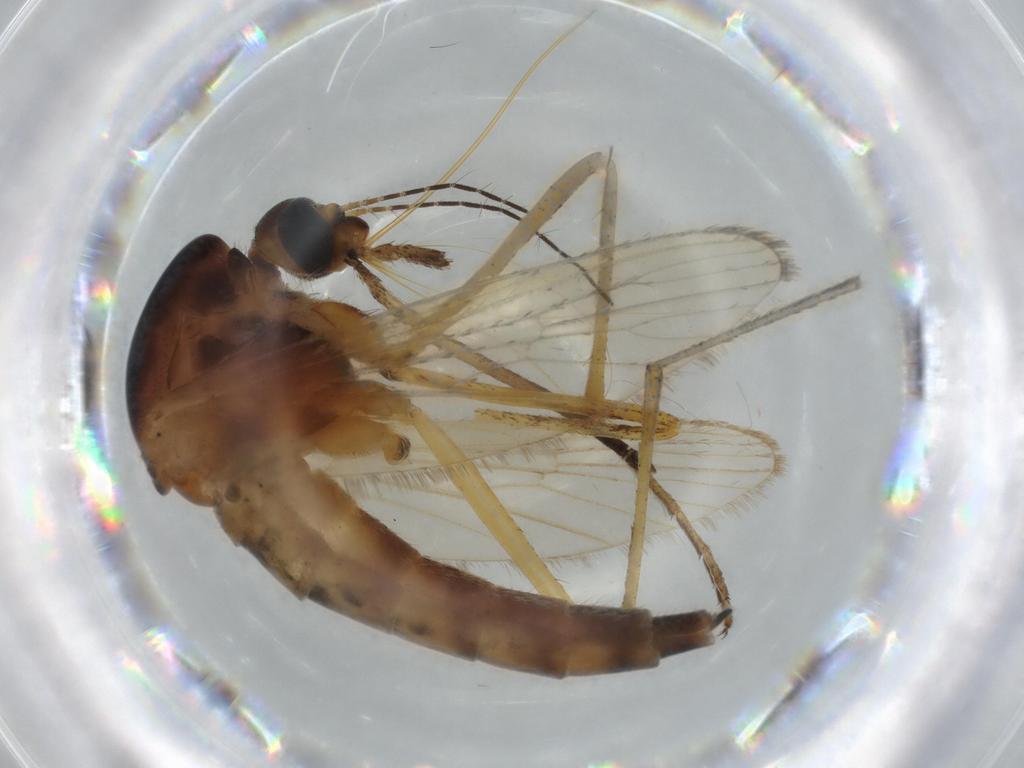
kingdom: Animalia
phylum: Arthropoda
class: Insecta
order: Diptera
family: Calliphoridae
